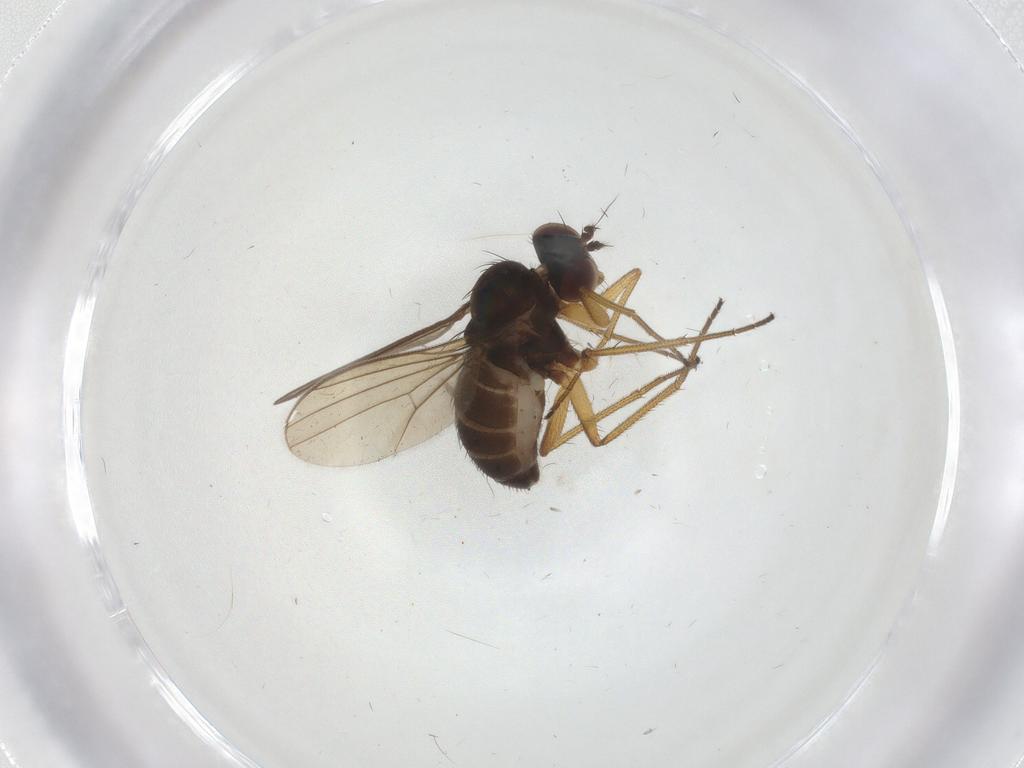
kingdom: Animalia
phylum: Arthropoda
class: Insecta
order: Diptera
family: Dolichopodidae
